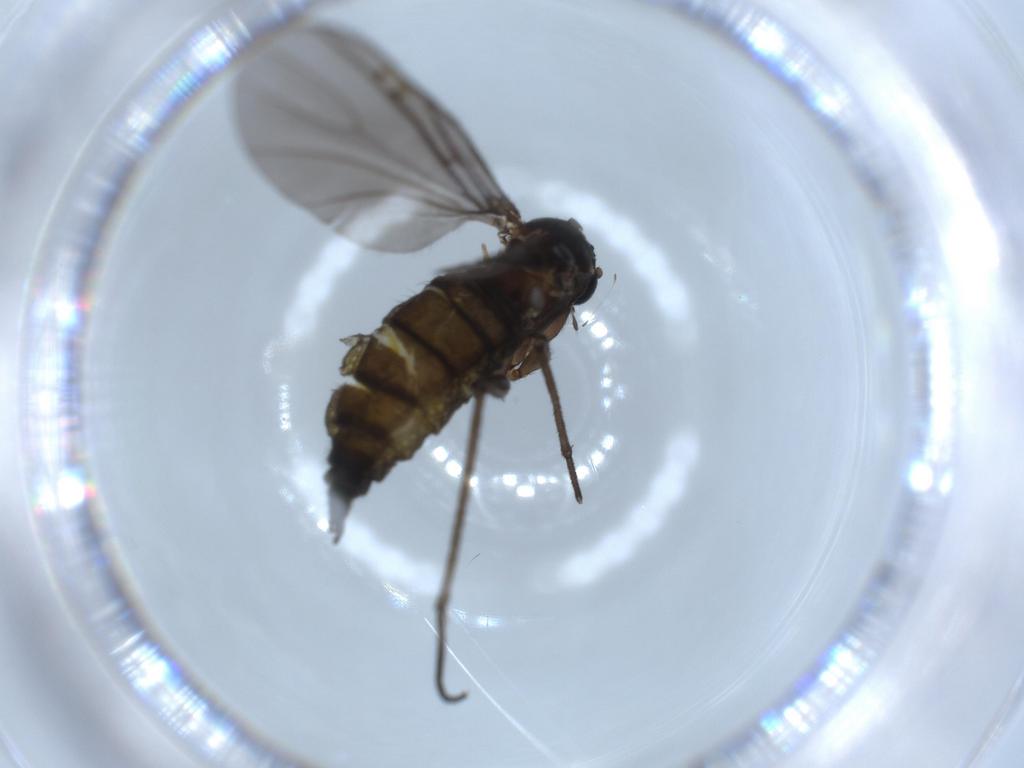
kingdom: Animalia
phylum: Arthropoda
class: Insecta
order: Diptera
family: Sciaridae
